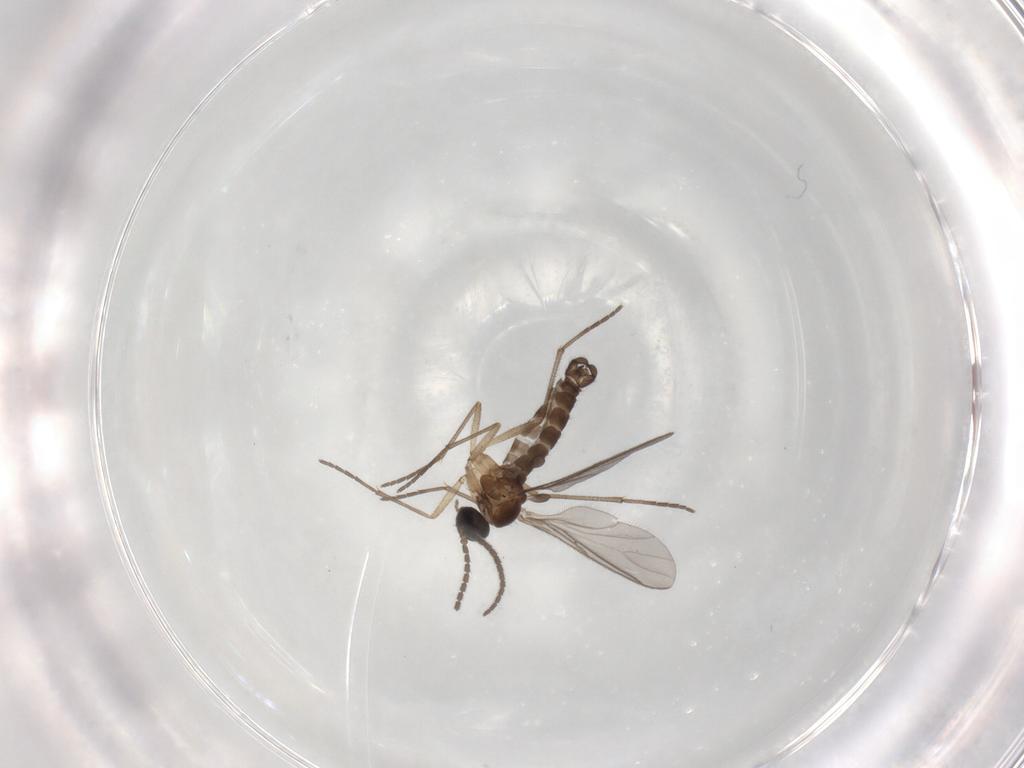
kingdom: Animalia
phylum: Arthropoda
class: Insecta
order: Diptera
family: Sciaridae
